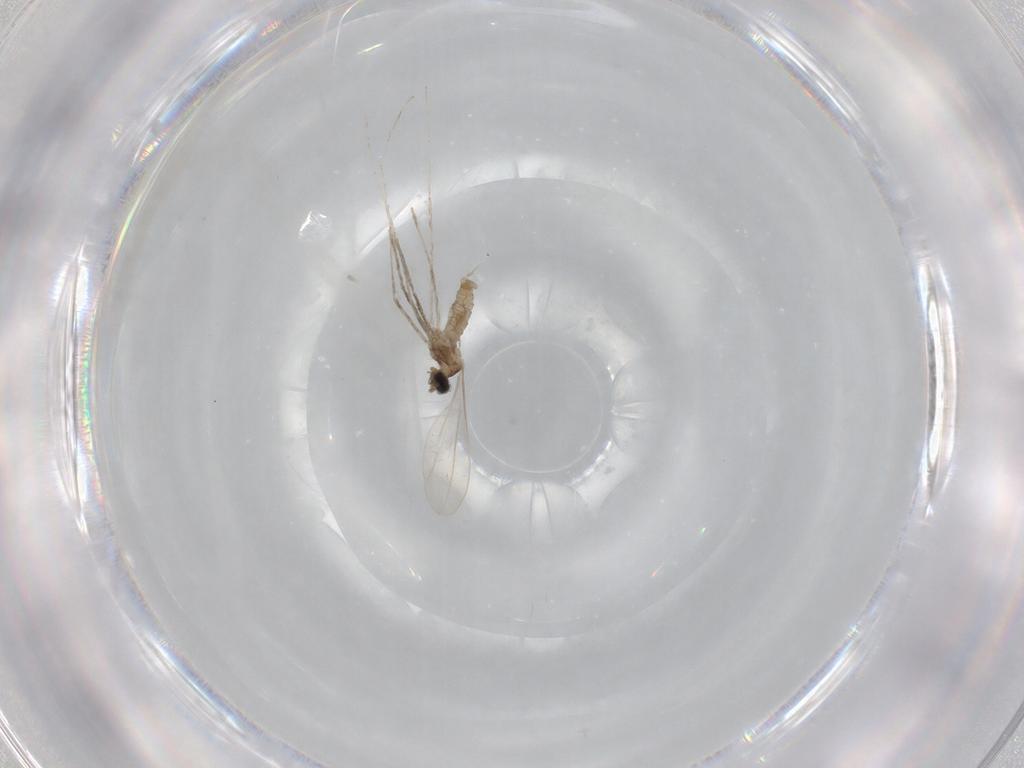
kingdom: Animalia
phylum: Arthropoda
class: Insecta
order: Diptera
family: Cecidomyiidae
